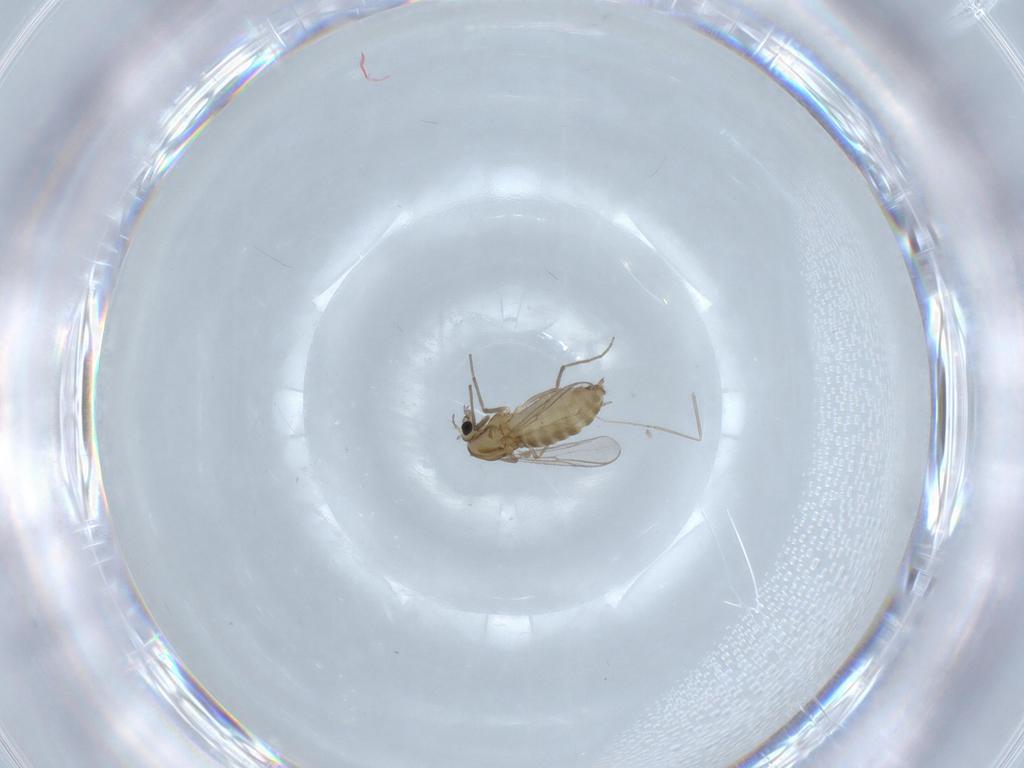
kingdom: Animalia
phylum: Arthropoda
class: Insecta
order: Diptera
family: Chironomidae
